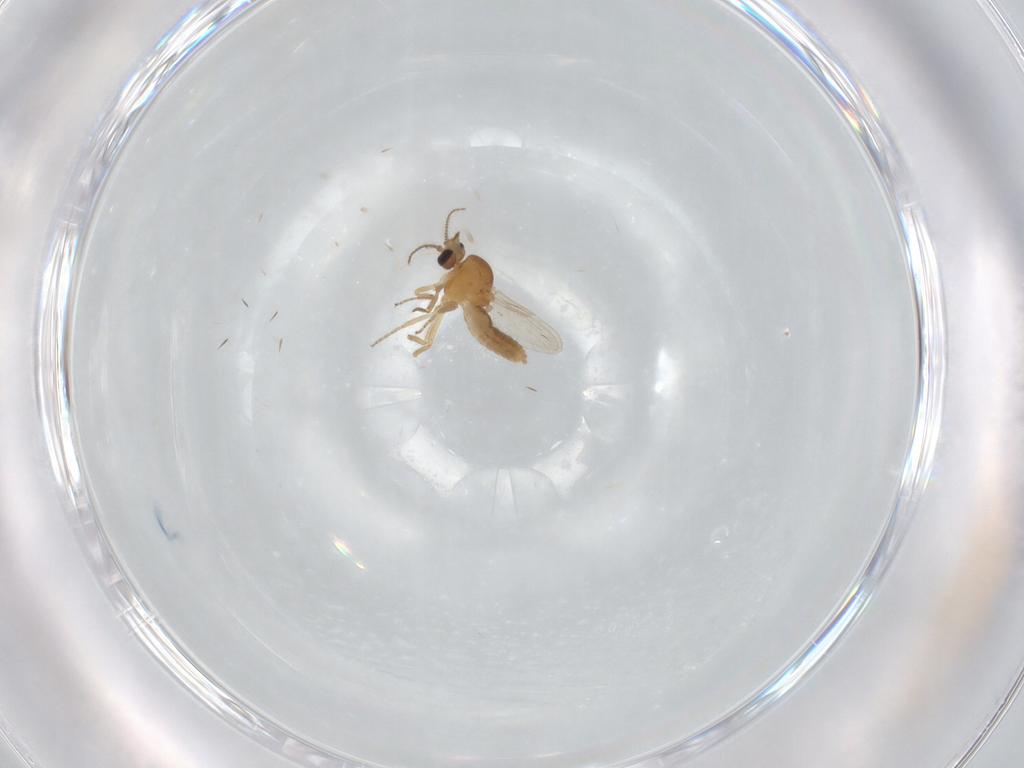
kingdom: Animalia
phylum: Arthropoda
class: Insecta
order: Diptera
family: Ceratopogonidae
